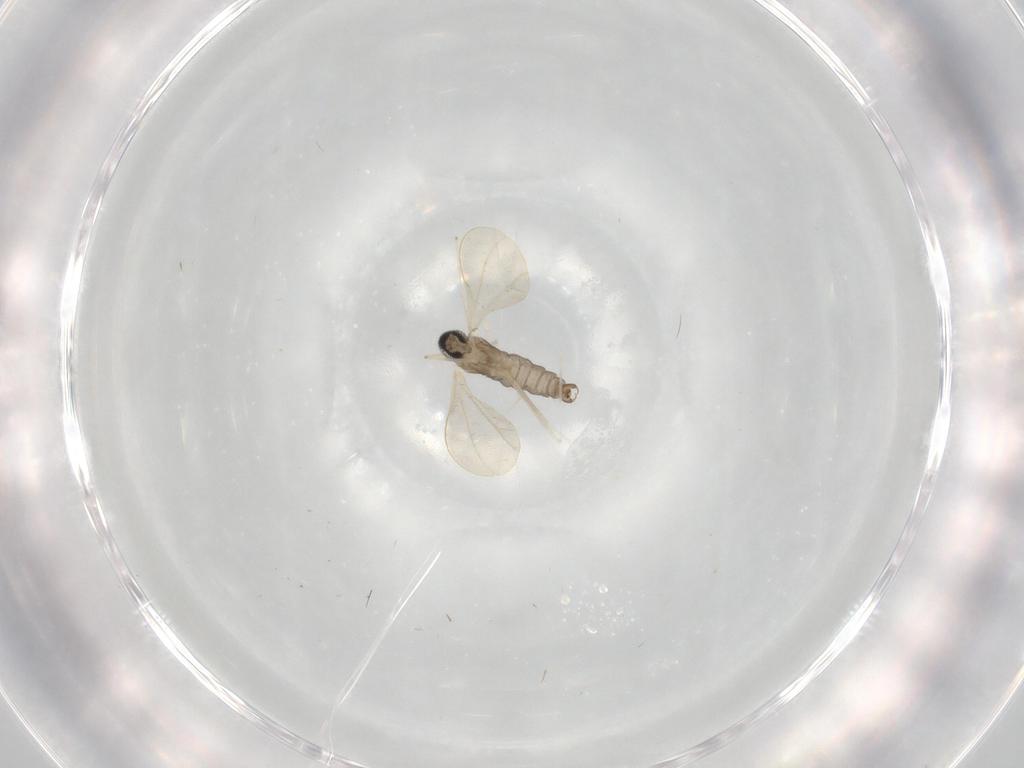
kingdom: Animalia
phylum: Arthropoda
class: Insecta
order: Diptera
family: Cecidomyiidae
